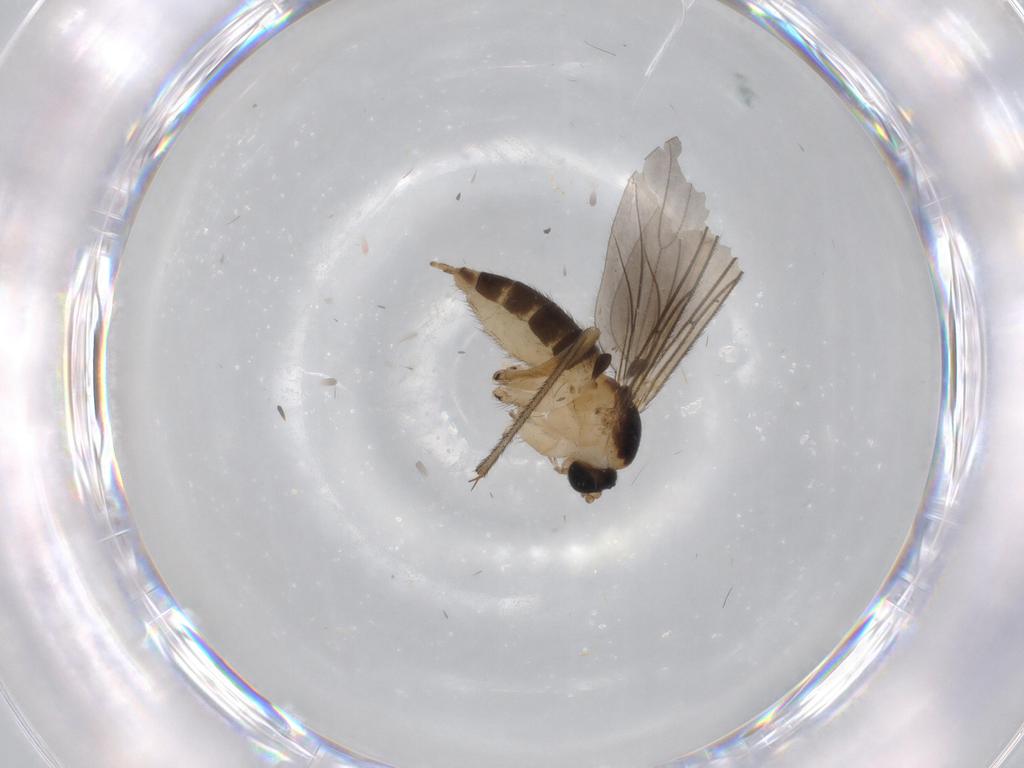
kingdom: Animalia
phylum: Arthropoda
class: Insecta
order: Diptera
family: Sciaridae
